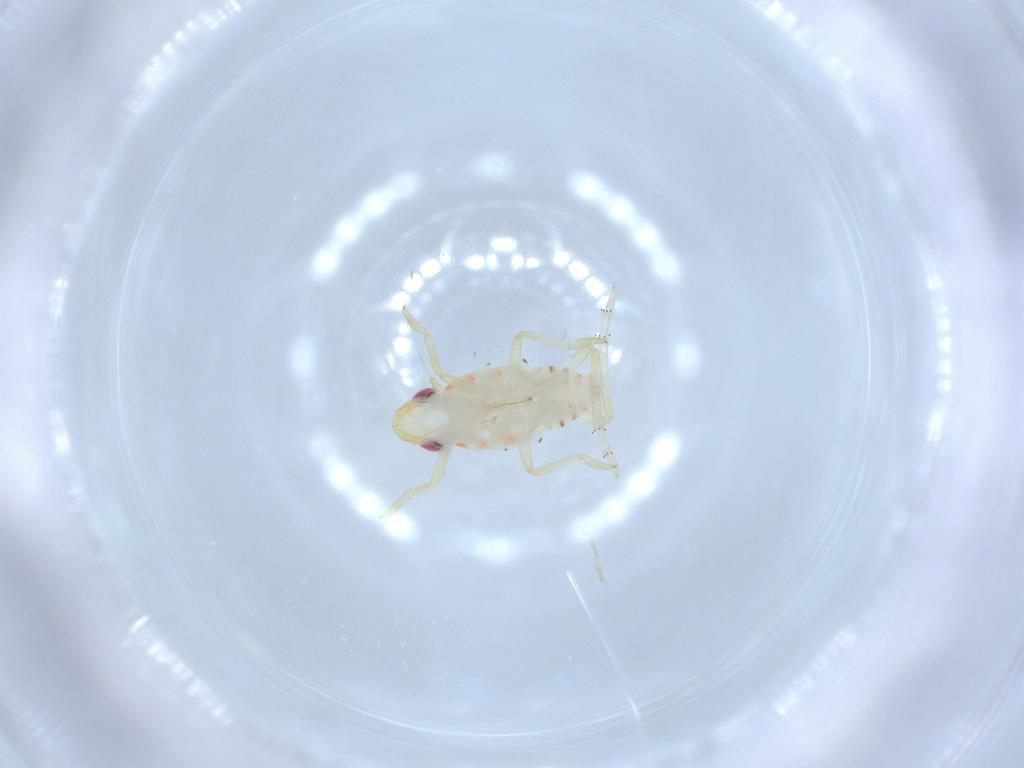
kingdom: Animalia
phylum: Arthropoda
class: Insecta
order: Hemiptera
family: Tropiduchidae
